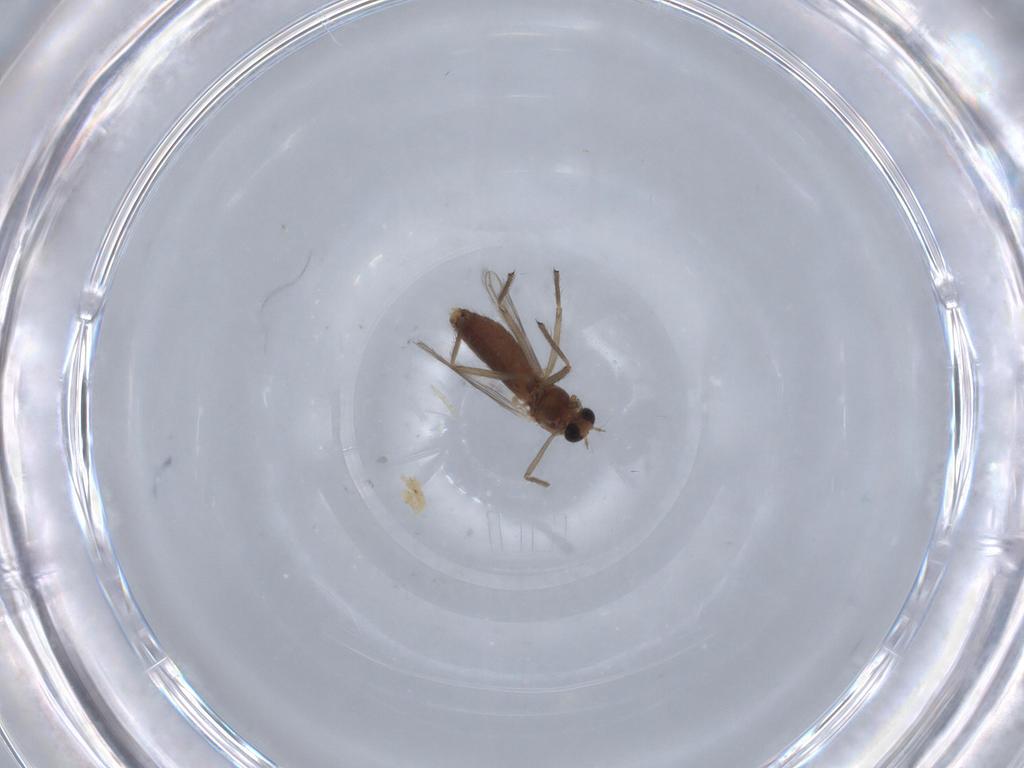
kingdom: Animalia
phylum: Arthropoda
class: Insecta
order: Diptera
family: Chironomidae
